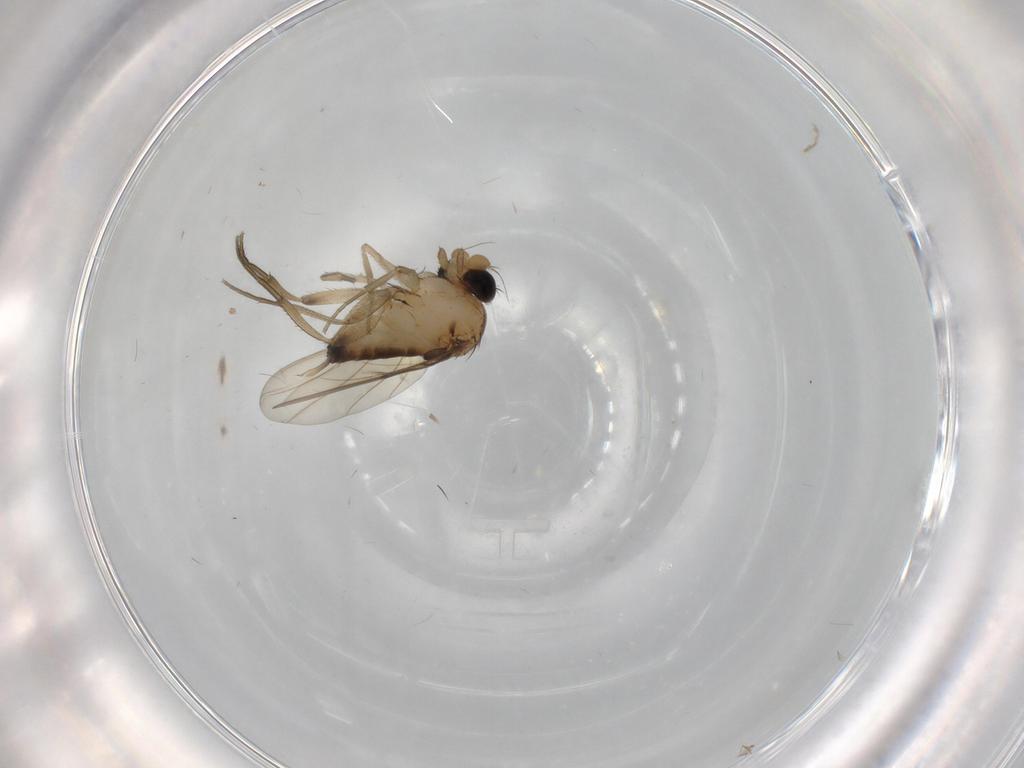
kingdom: Animalia
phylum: Arthropoda
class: Insecta
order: Diptera
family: Phoridae
